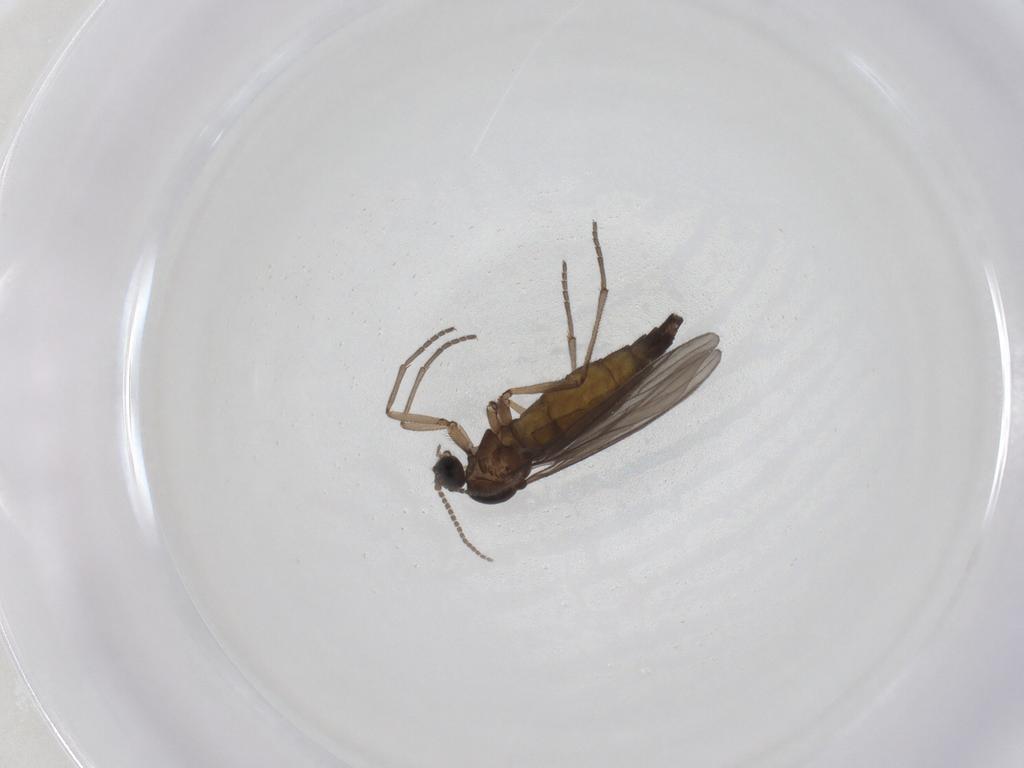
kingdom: Animalia
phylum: Arthropoda
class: Insecta
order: Diptera
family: Sciaridae
